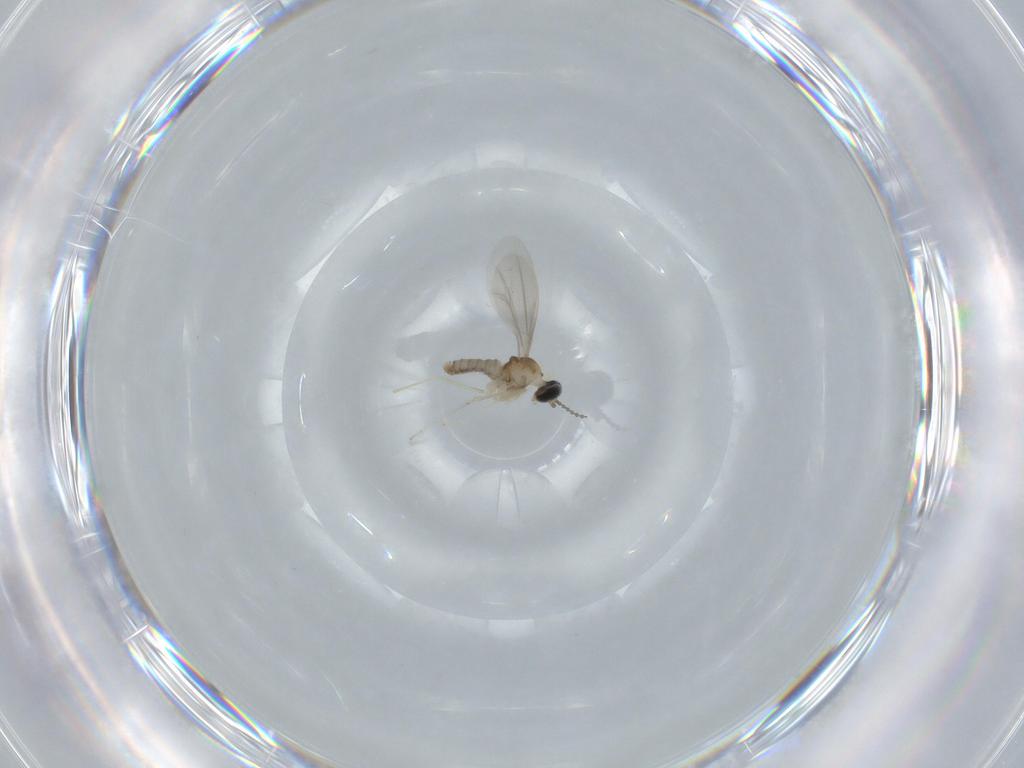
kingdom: Animalia
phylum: Arthropoda
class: Insecta
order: Diptera
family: Cecidomyiidae
